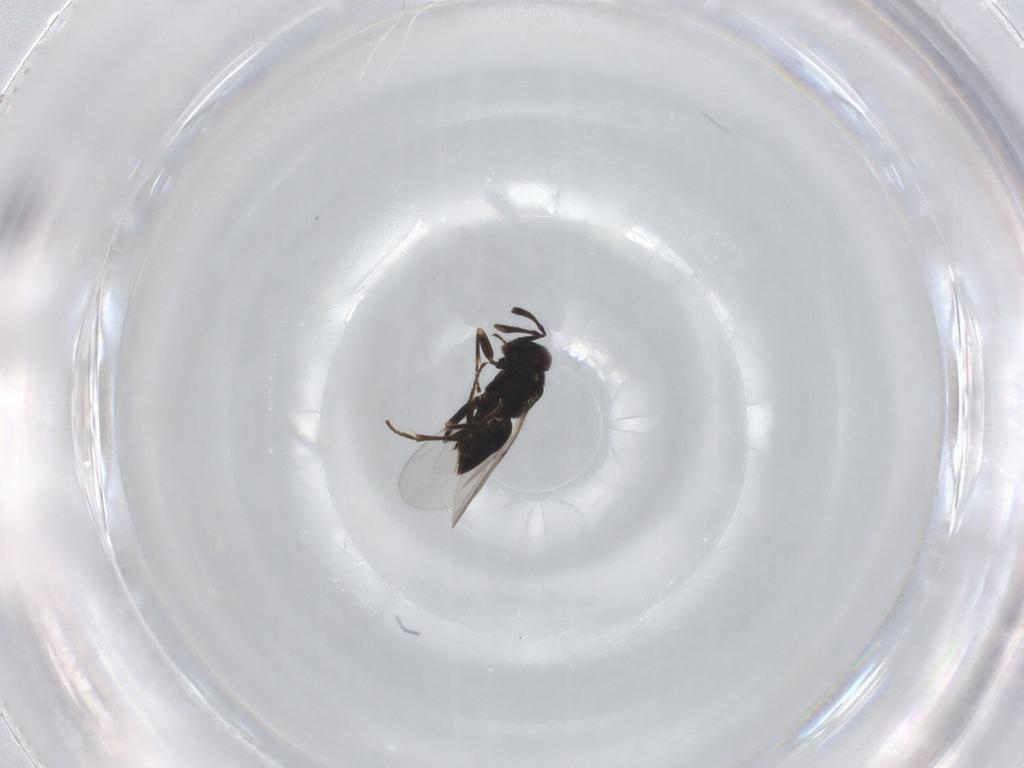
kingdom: Animalia
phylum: Arthropoda
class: Insecta
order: Hymenoptera
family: Encyrtidae
